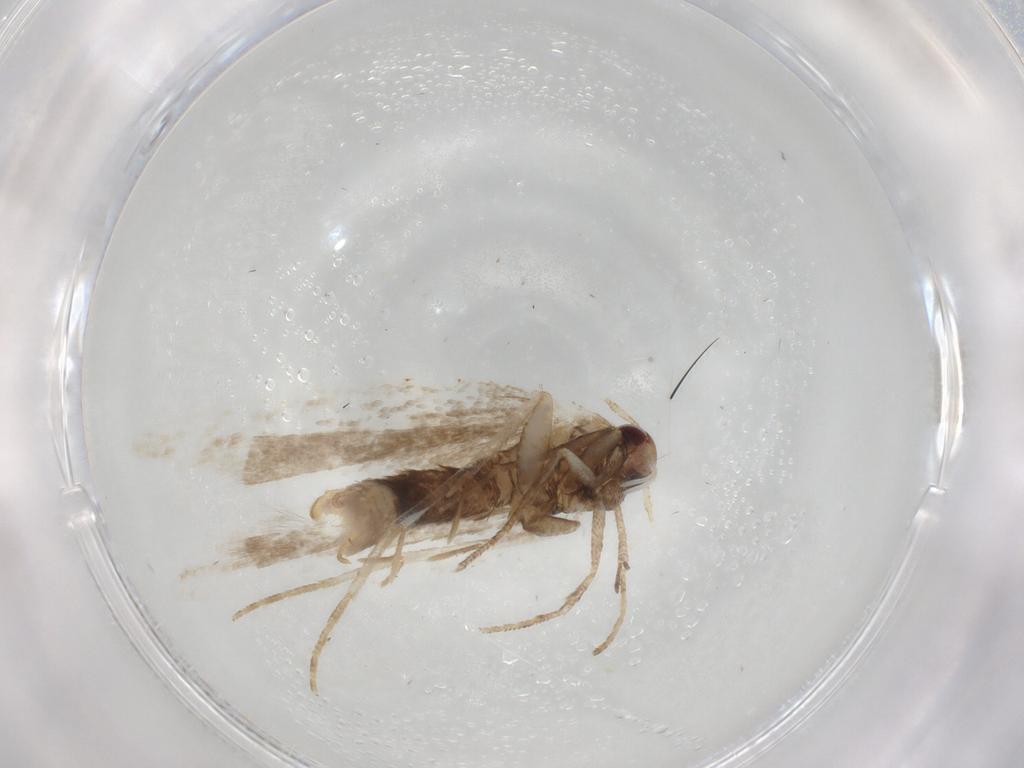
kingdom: Animalia
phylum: Arthropoda
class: Insecta
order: Lepidoptera
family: Gelechiidae
